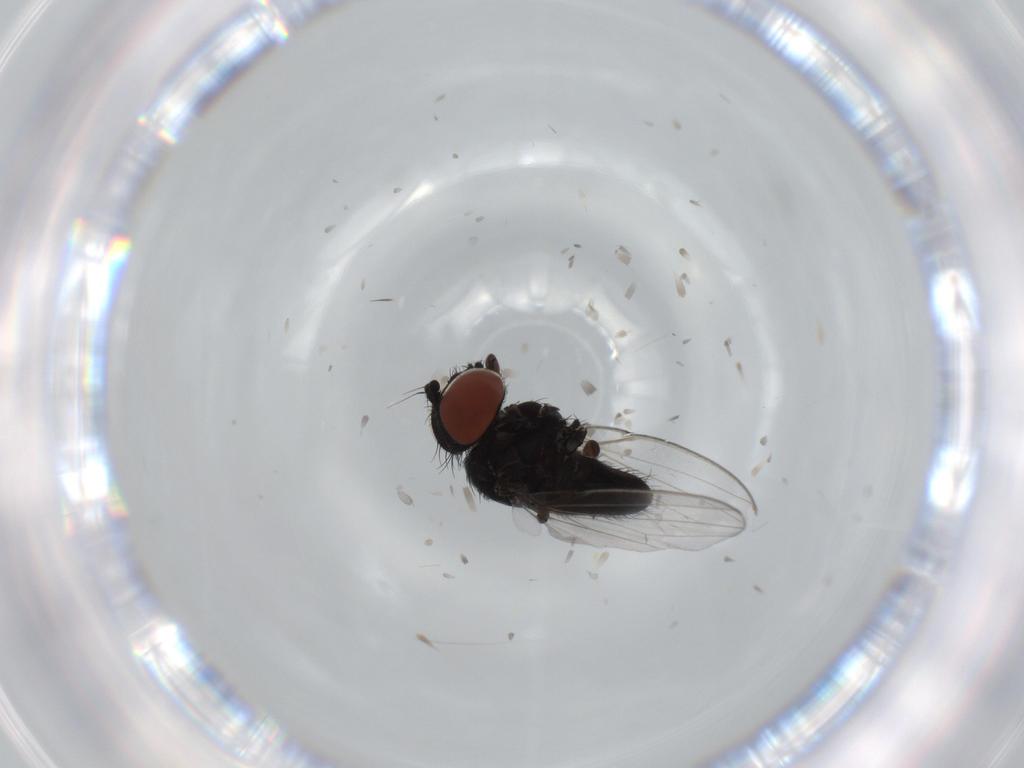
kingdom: Animalia
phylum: Arthropoda
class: Insecta
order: Diptera
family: Milichiidae
